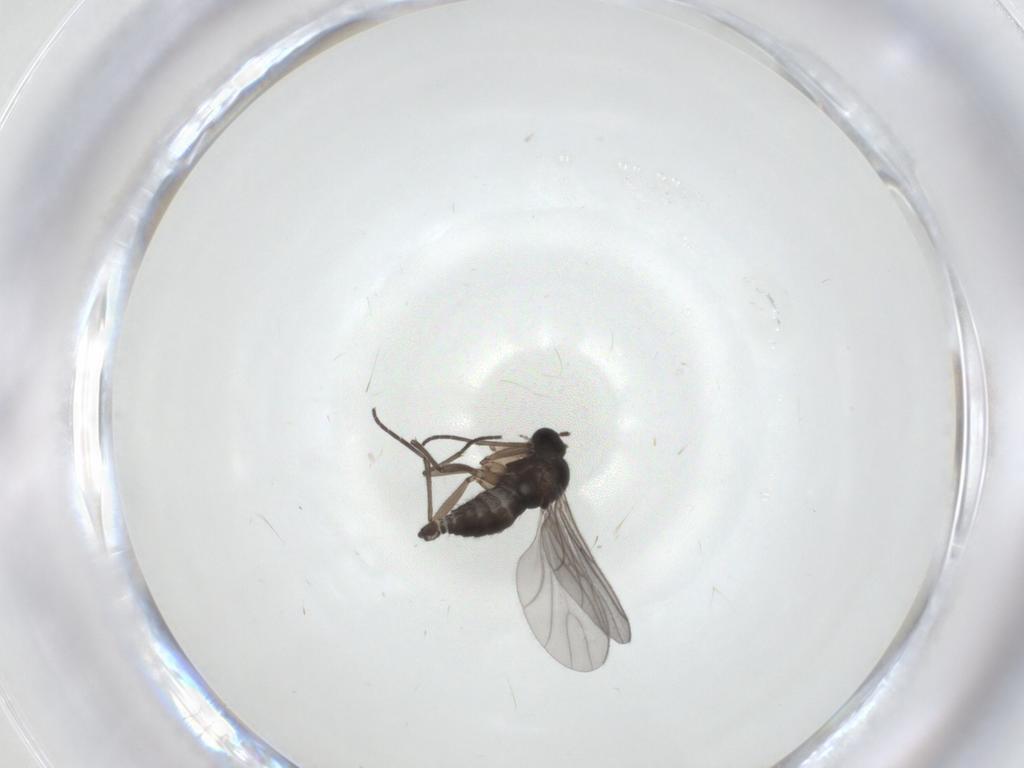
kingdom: Animalia
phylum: Arthropoda
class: Insecta
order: Diptera
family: Sciaridae
